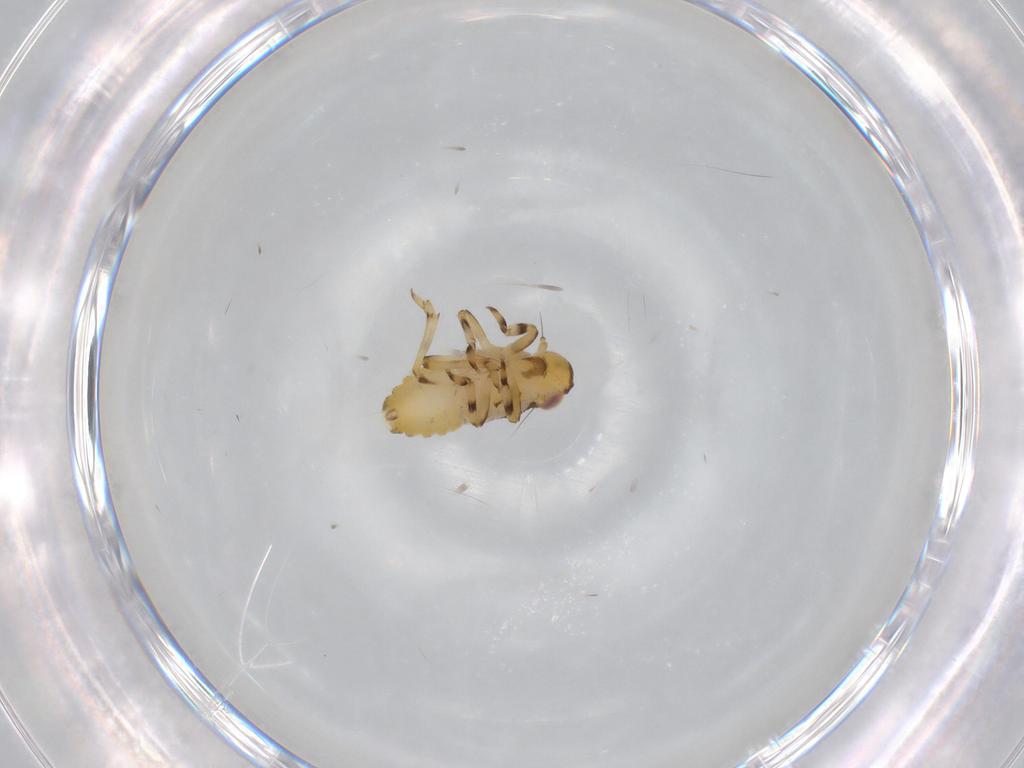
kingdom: Animalia
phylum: Arthropoda
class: Insecta
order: Hemiptera
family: Issidae
